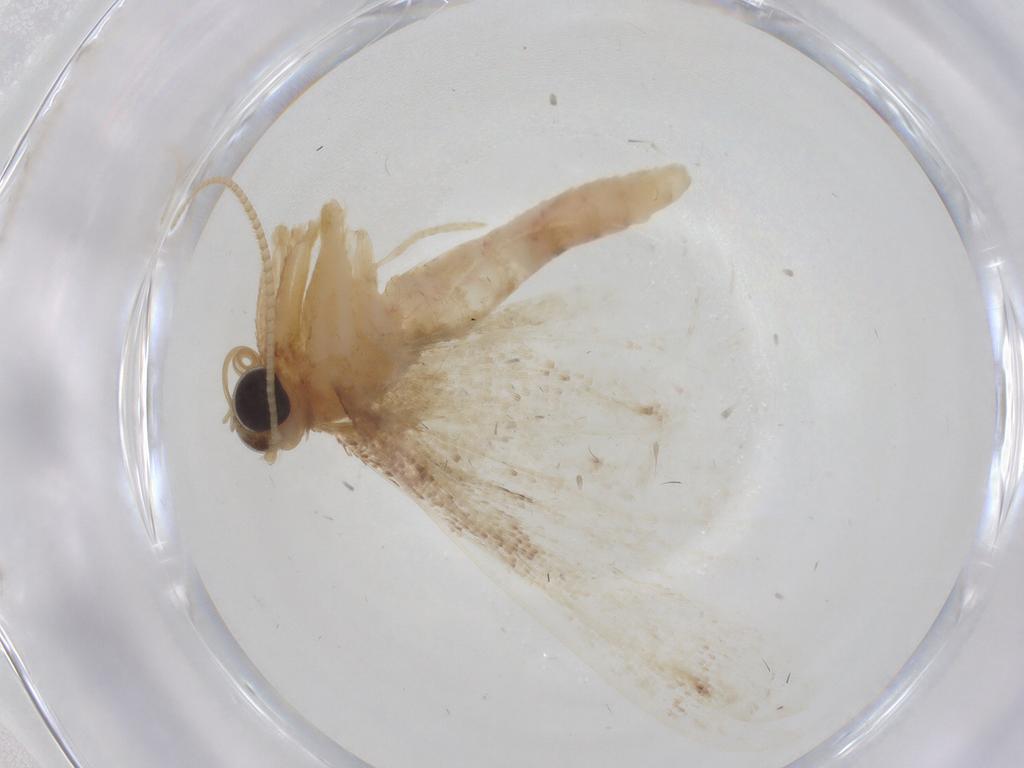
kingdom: Animalia
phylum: Arthropoda
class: Insecta
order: Lepidoptera
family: Geometridae
